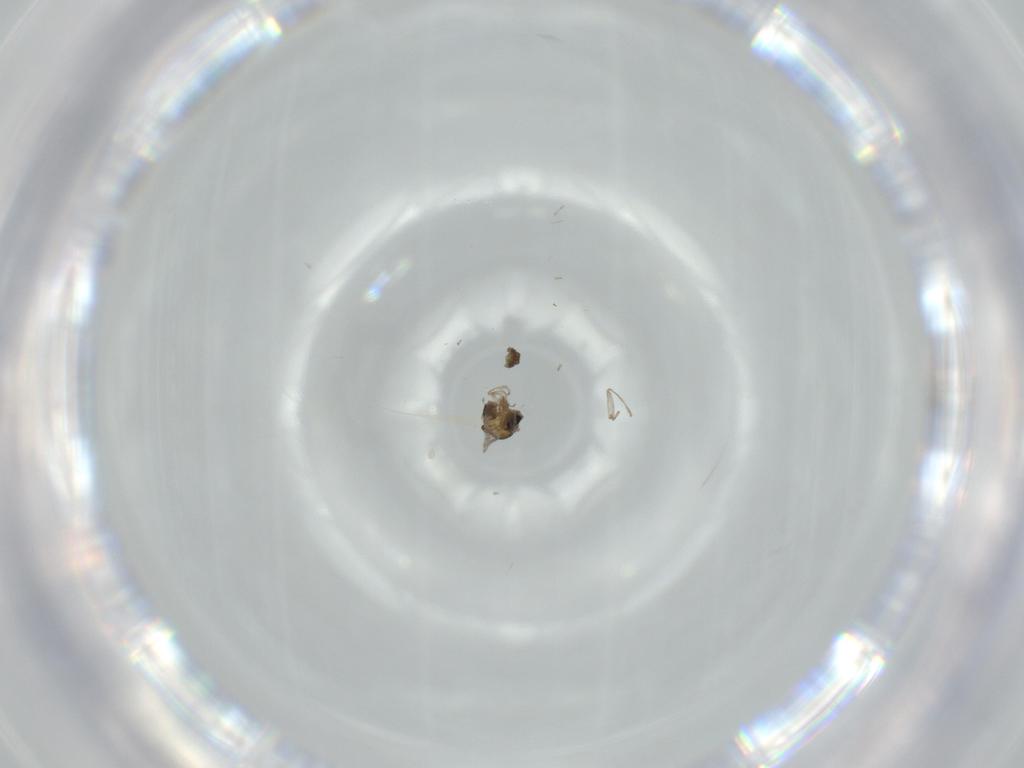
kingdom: Animalia
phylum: Arthropoda
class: Insecta
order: Diptera
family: Cecidomyiidae
